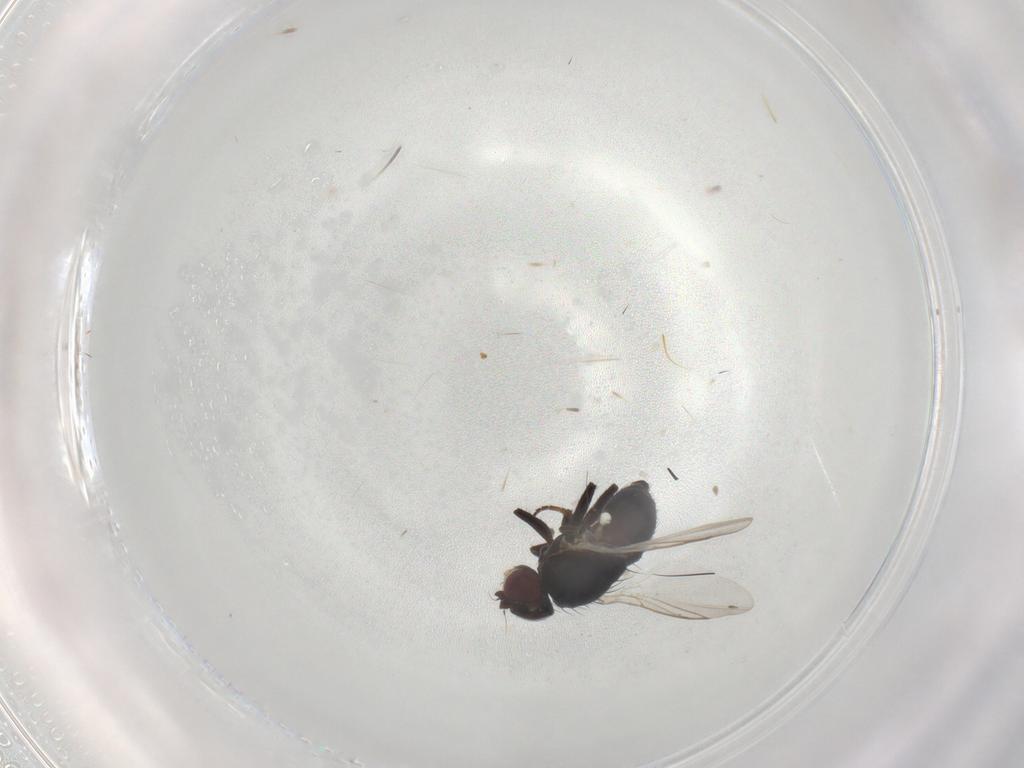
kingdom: Animalia
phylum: Arthropoda
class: Insecta
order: Diptera
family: Agromyzidae
